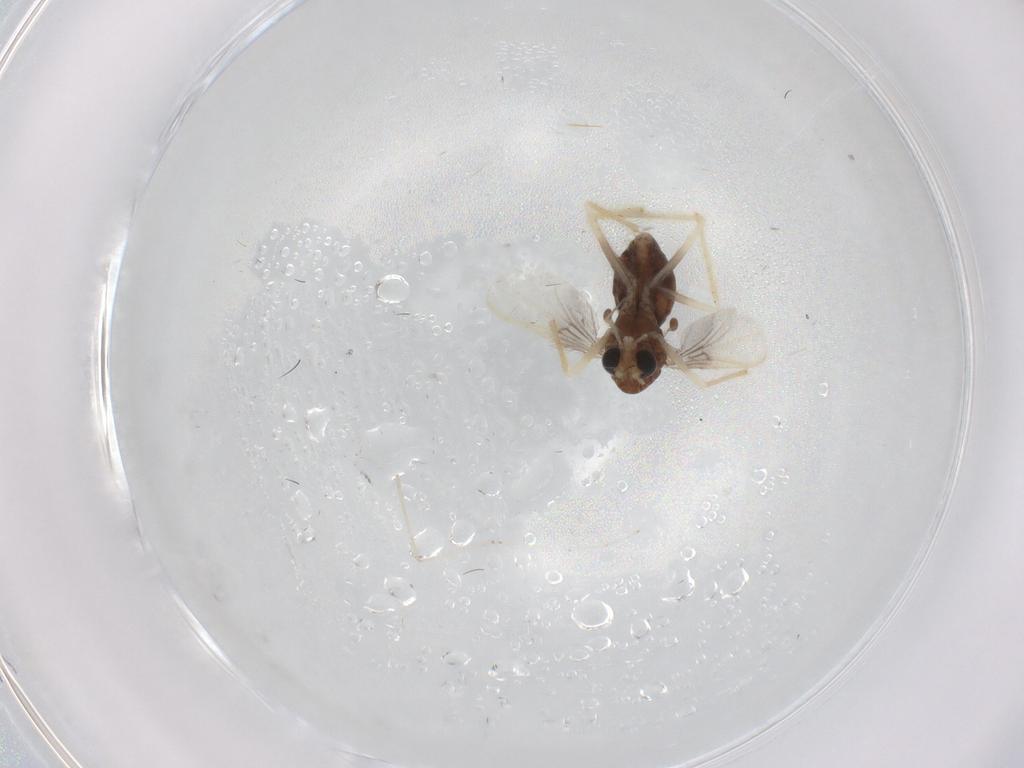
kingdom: Animalia
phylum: Arthropoda
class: Insecta
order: Diptera
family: Chironomidae
